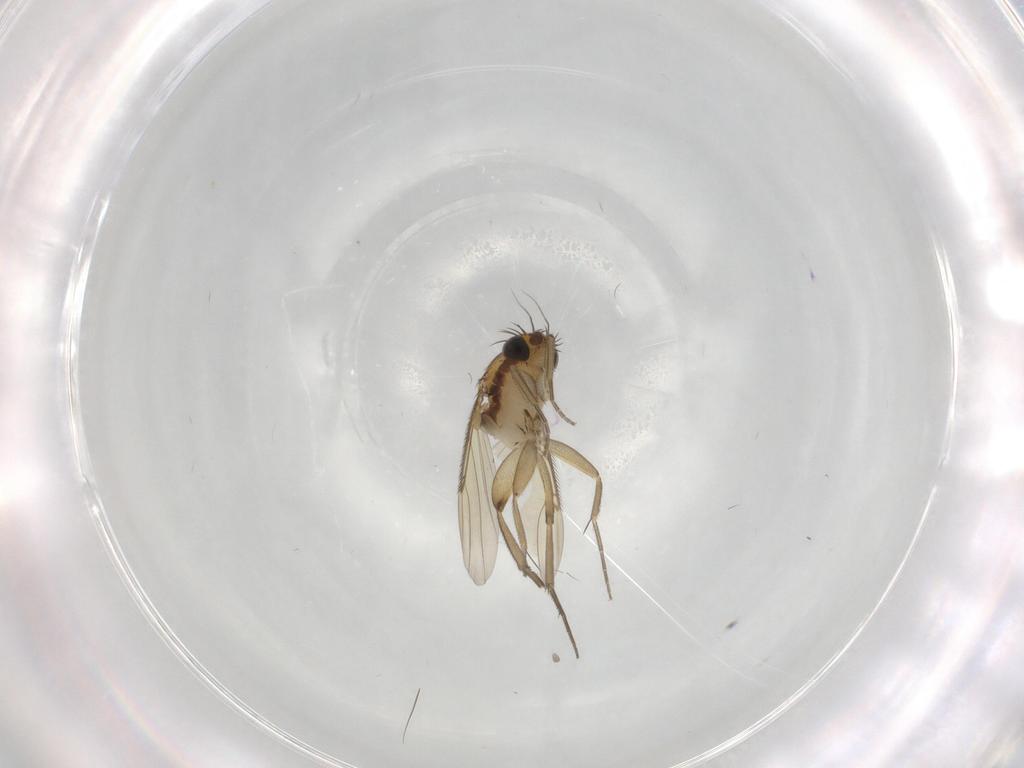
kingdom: Animalia
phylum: Arthropoda
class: Insecta
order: Diptera
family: Phoridae
